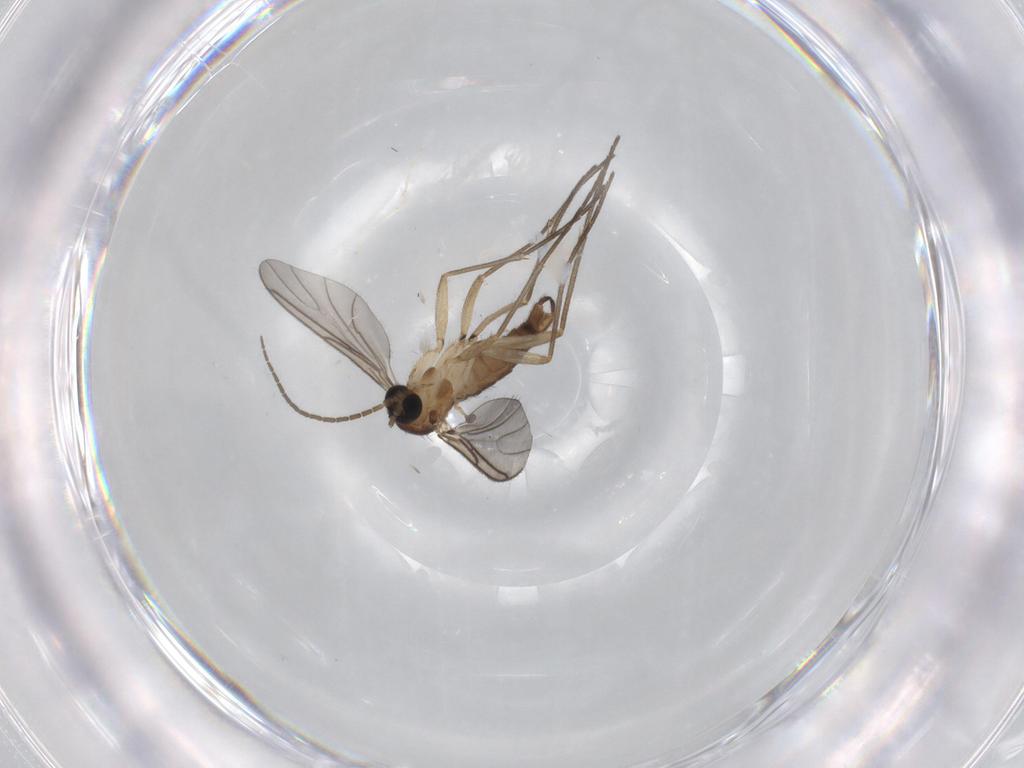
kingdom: Animalia
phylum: Arthropoda
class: Insecta
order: Diptera
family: Sciaridae
